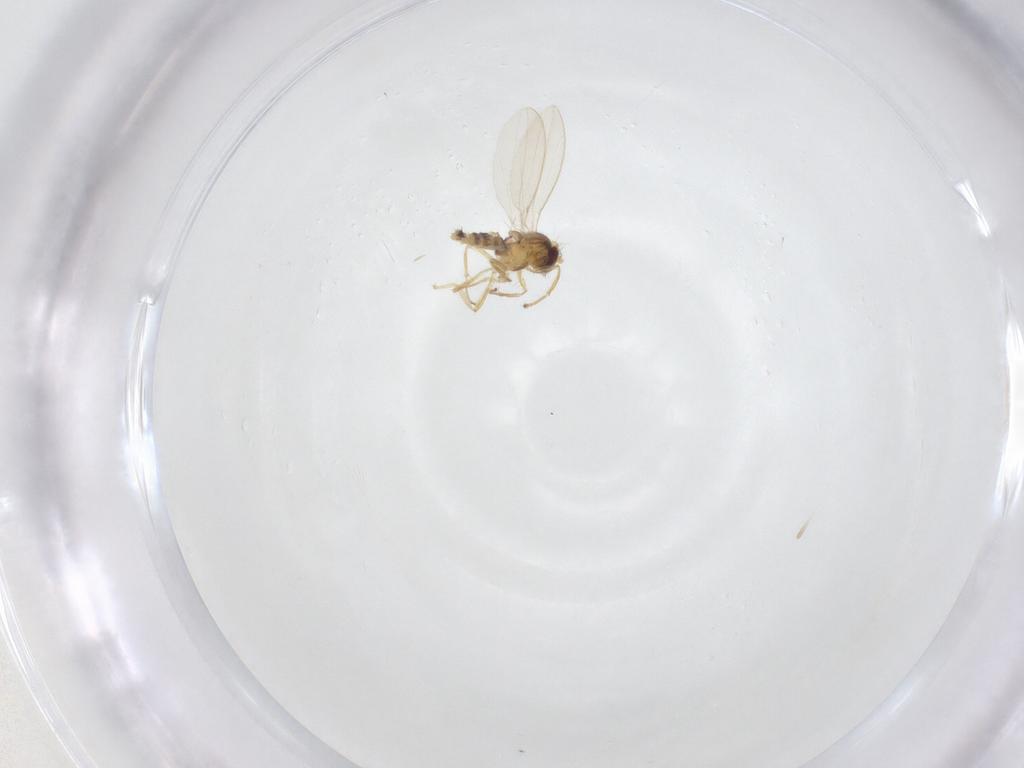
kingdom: Animalia
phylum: Arthropoda
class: Insecta
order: Diptera
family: Periscelididae
